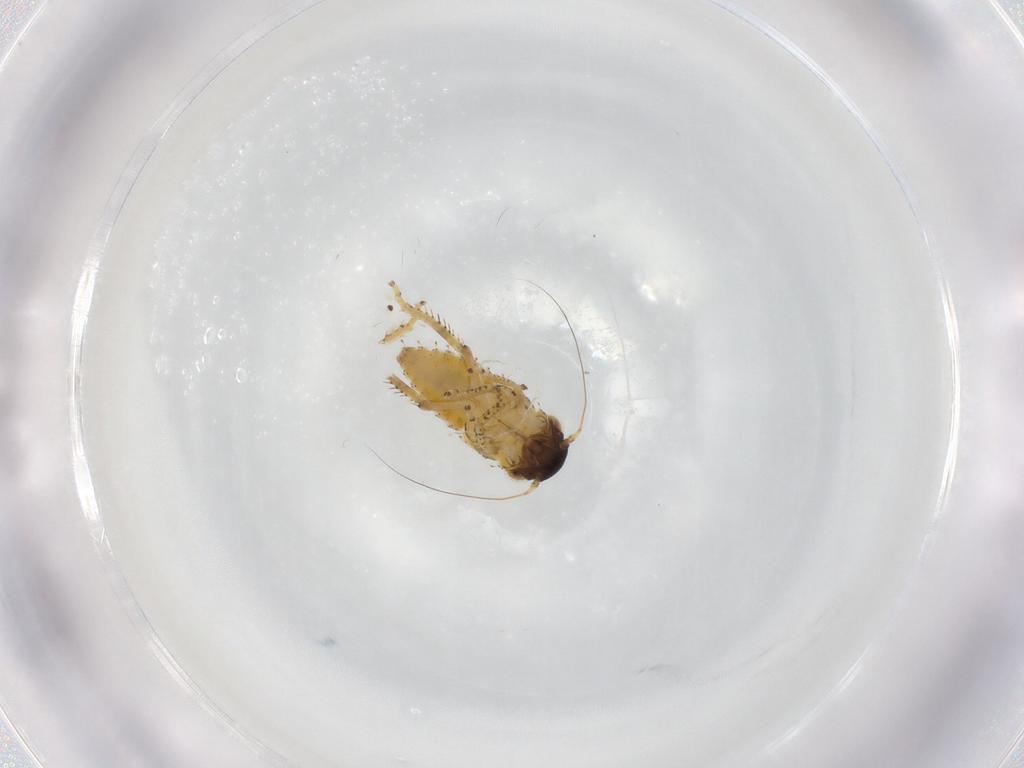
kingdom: Animalia
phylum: Arthropoda
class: Insecta
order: Hemiptera
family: Cicadellidae
